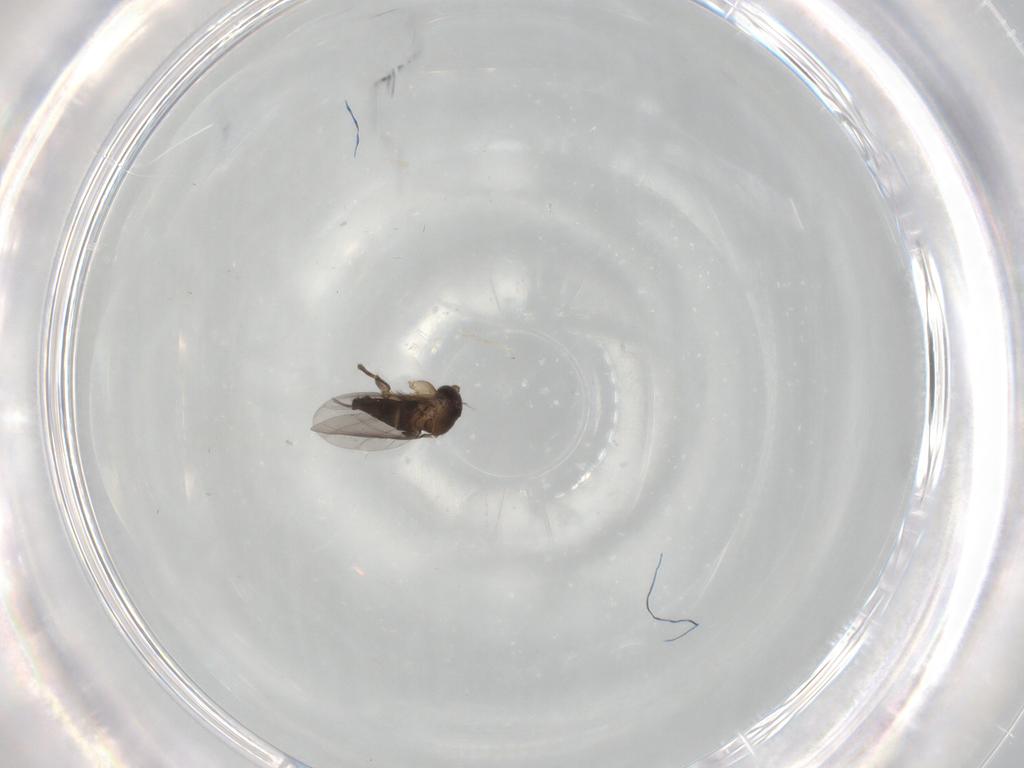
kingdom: Animalia
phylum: Arthropoda
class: Insecta
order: Diptera
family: Phoridae
